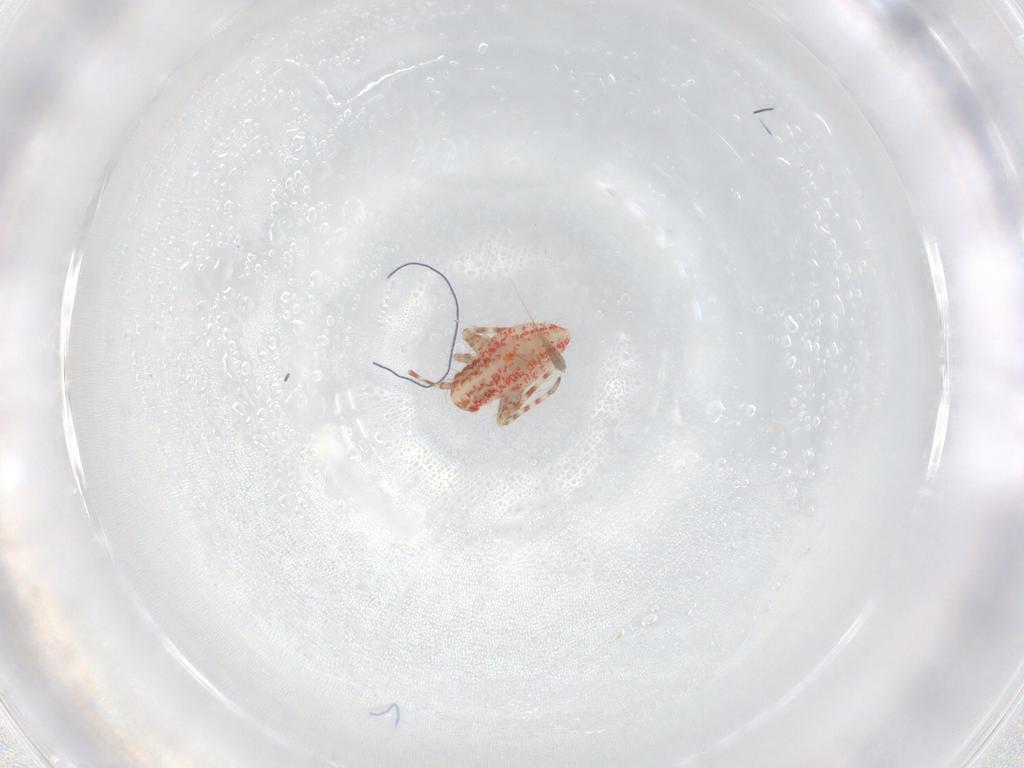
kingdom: Animalia
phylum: Arthropoda
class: Insecta
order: Hemiptera
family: Miridae
